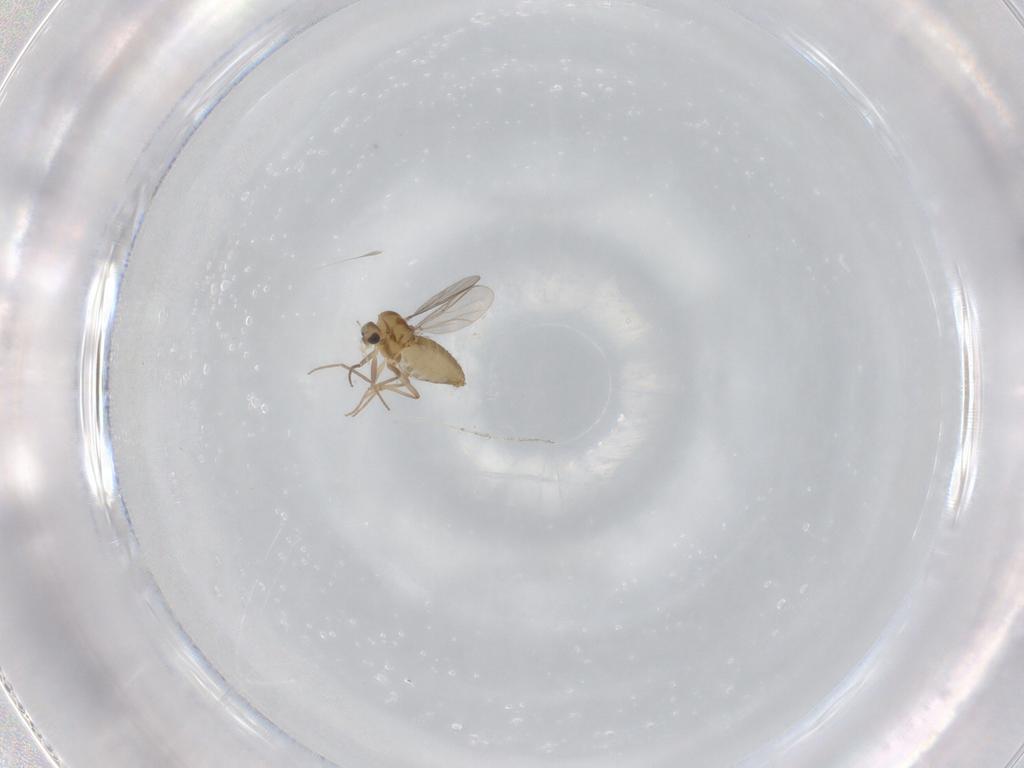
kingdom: Animalia
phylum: Arthropoda
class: Insecta
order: Diptera
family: Chironomidae
